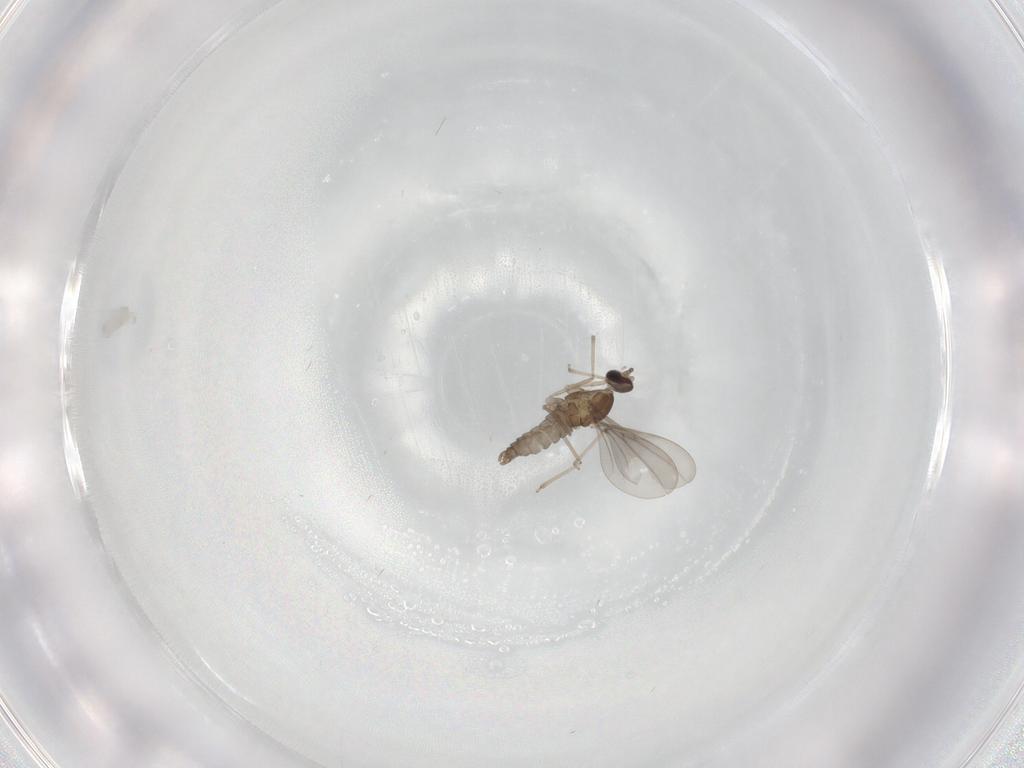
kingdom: Animalia
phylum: Arthropoda
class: Insecta
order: Diptera
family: Cecidomyiidae
